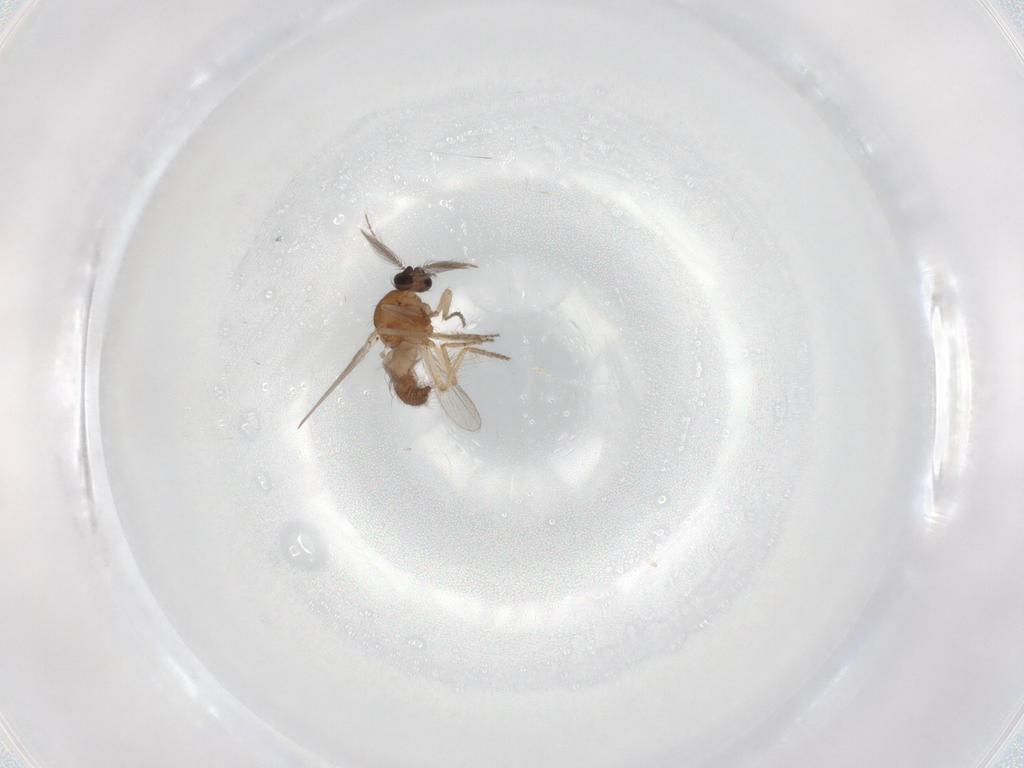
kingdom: Animalia
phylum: Arthropoda
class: Insecta
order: Diptera
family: Ceratopogonidae
